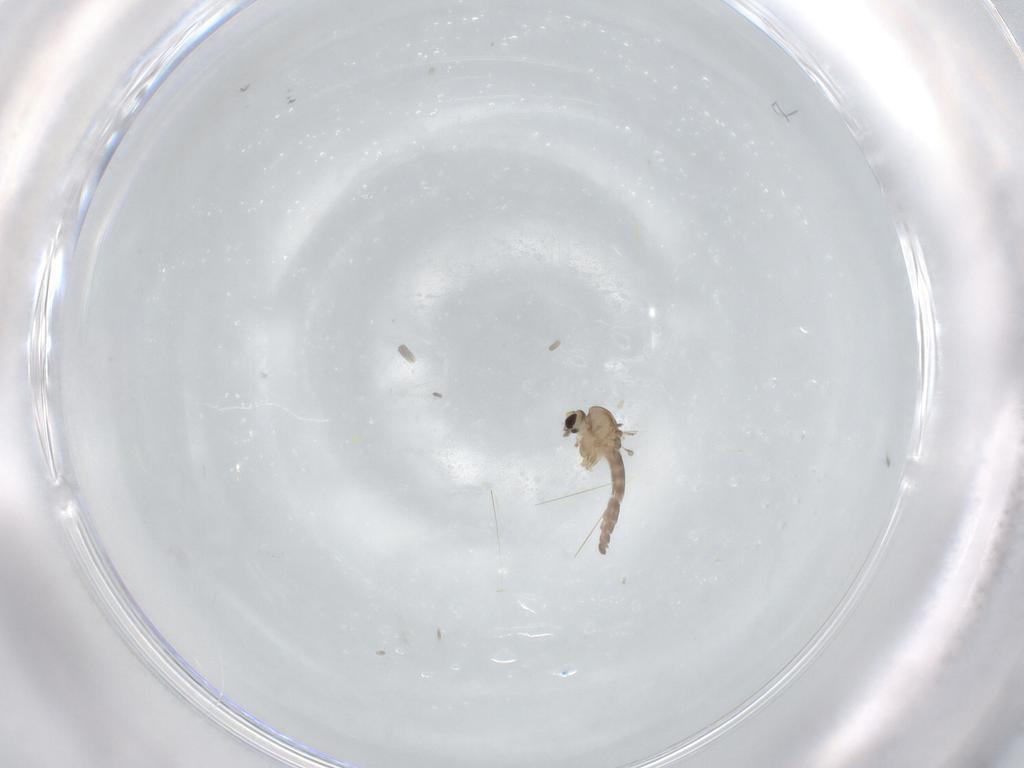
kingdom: Animalia
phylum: Arthropoda
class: Insecta
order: Diptera
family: Chironomidae
